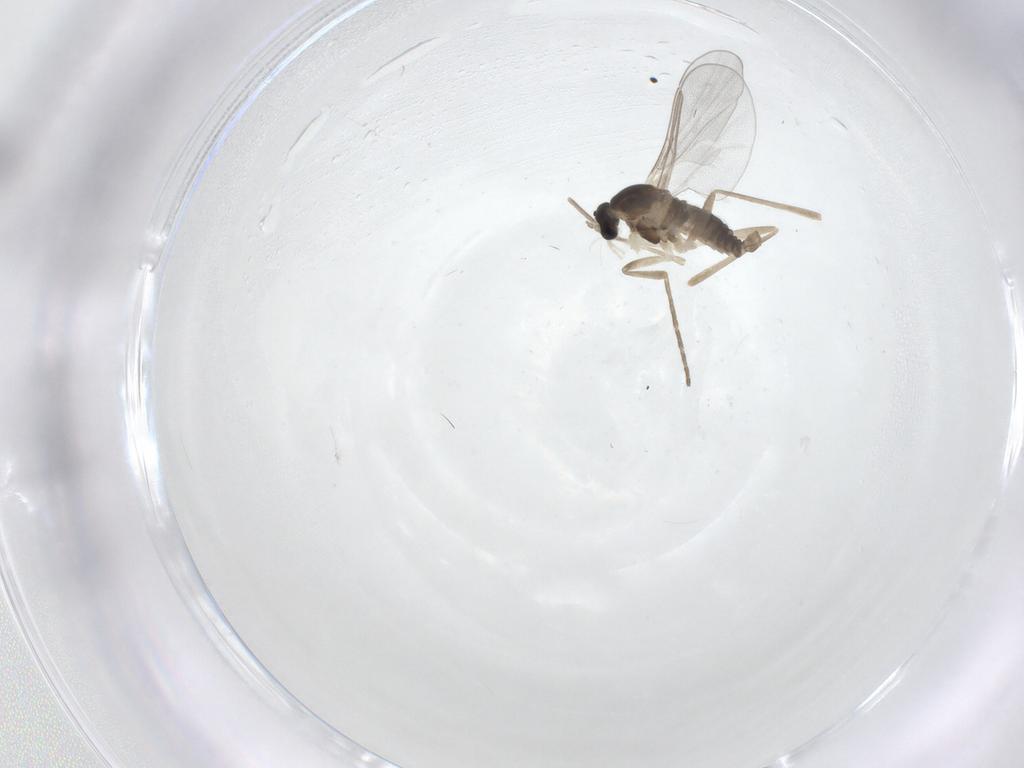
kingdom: Animalia
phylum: Arthropoda
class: Insecta
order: Diptera
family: Cecidomyiidae
